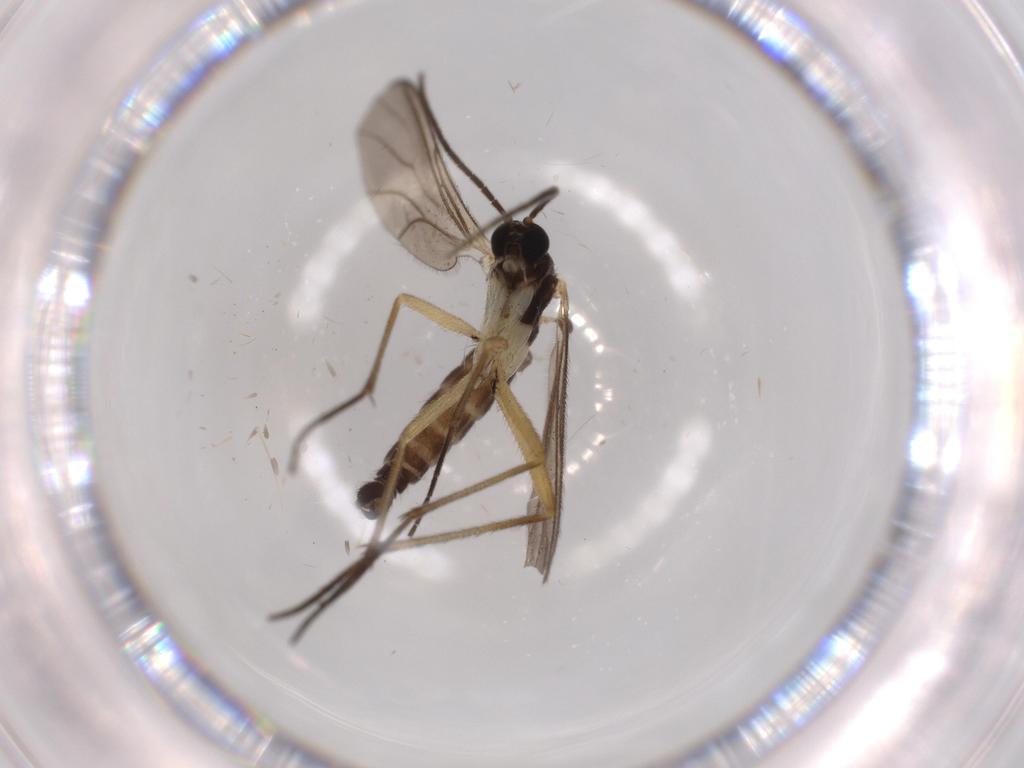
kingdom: Animalia
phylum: Arthropoda
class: Insecta
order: Diptera
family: Sciaridae
